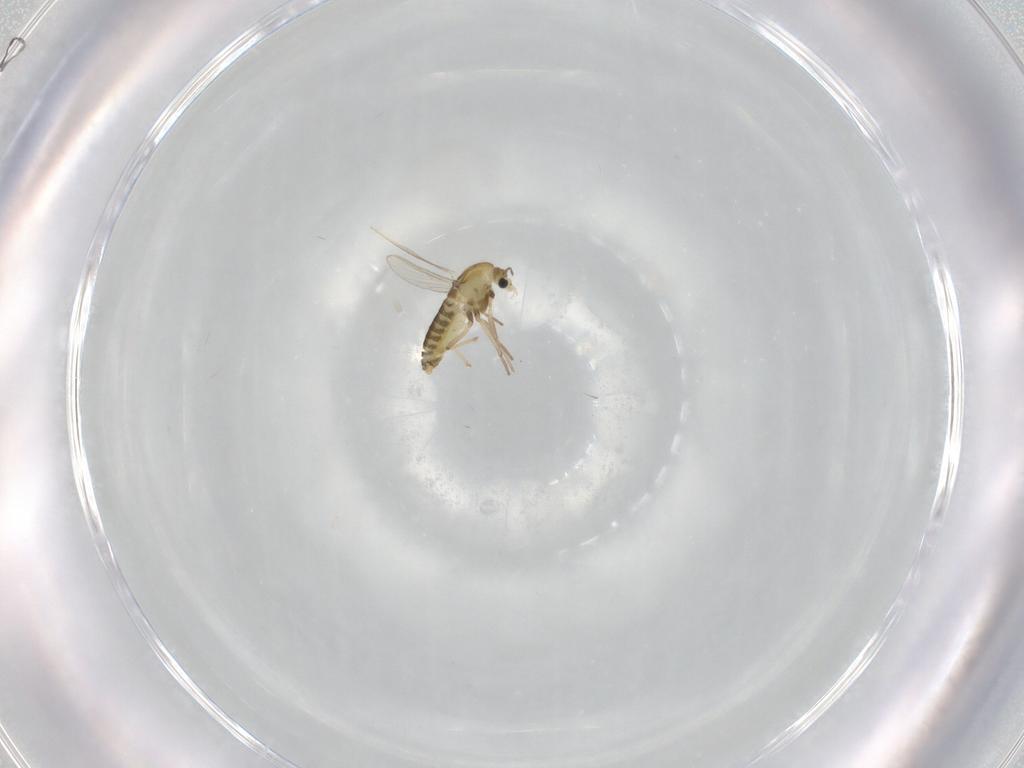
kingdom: Animalia
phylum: Arthropoda
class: Insecta
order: Diptera
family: Chironomidae
